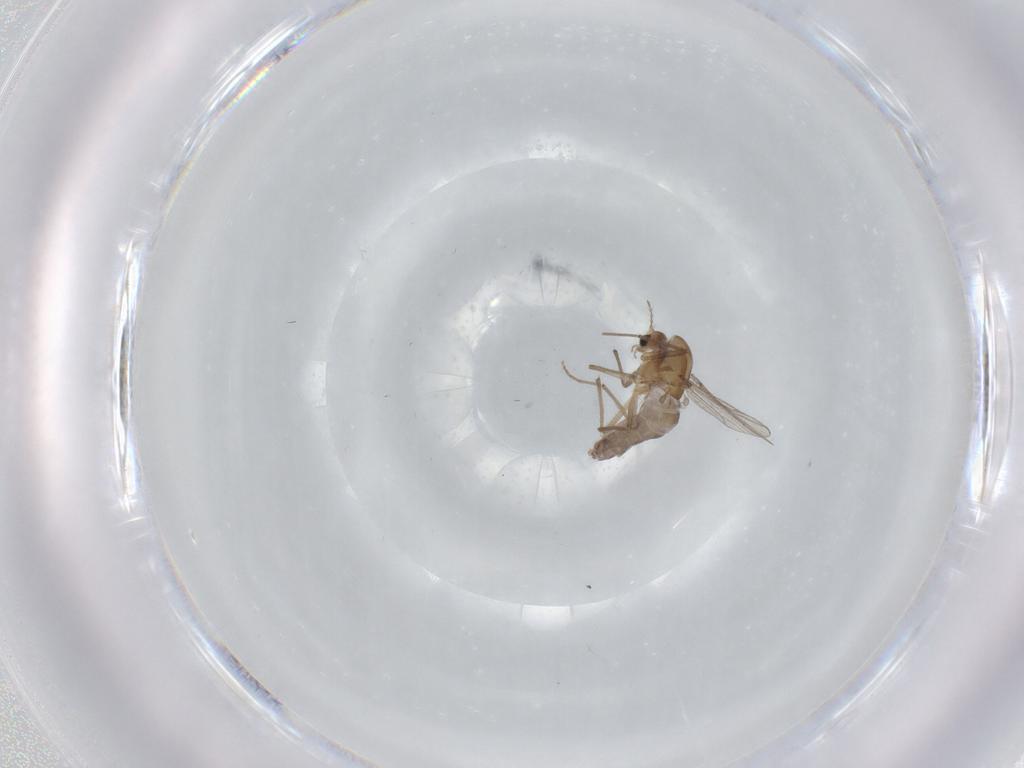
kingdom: Animalia
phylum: Arthropoda
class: Insecta
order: Diptera
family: Chironomidae
